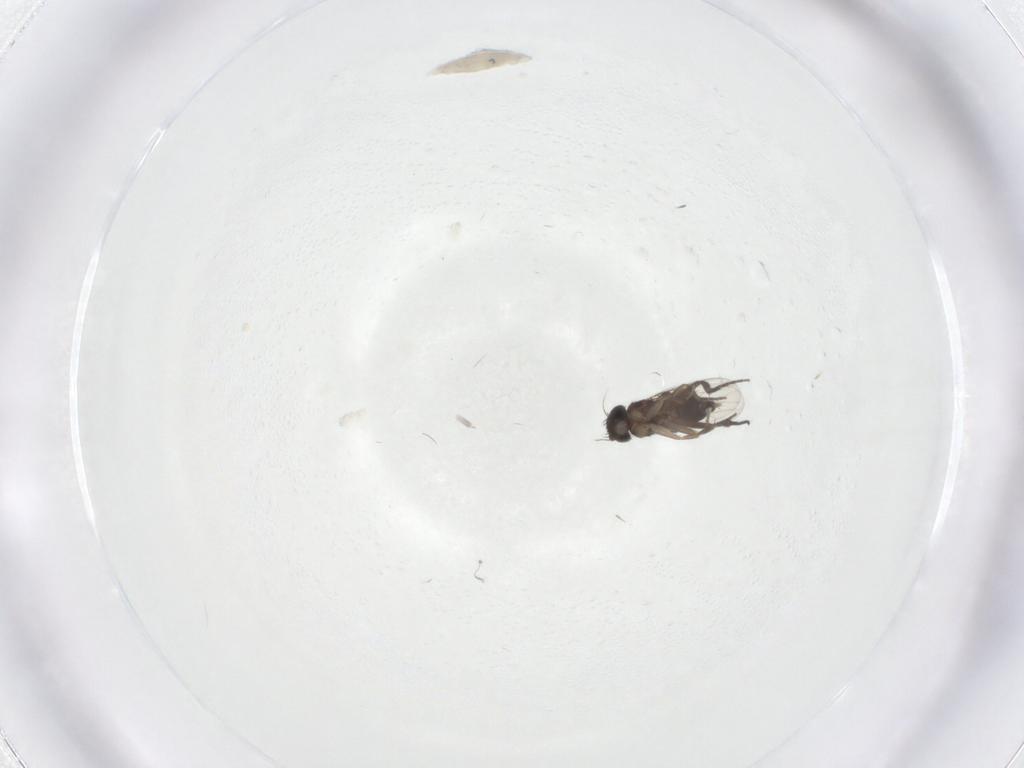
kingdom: Animalia
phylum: Arthropoda
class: Insecta
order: Diptera
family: Phoridae
